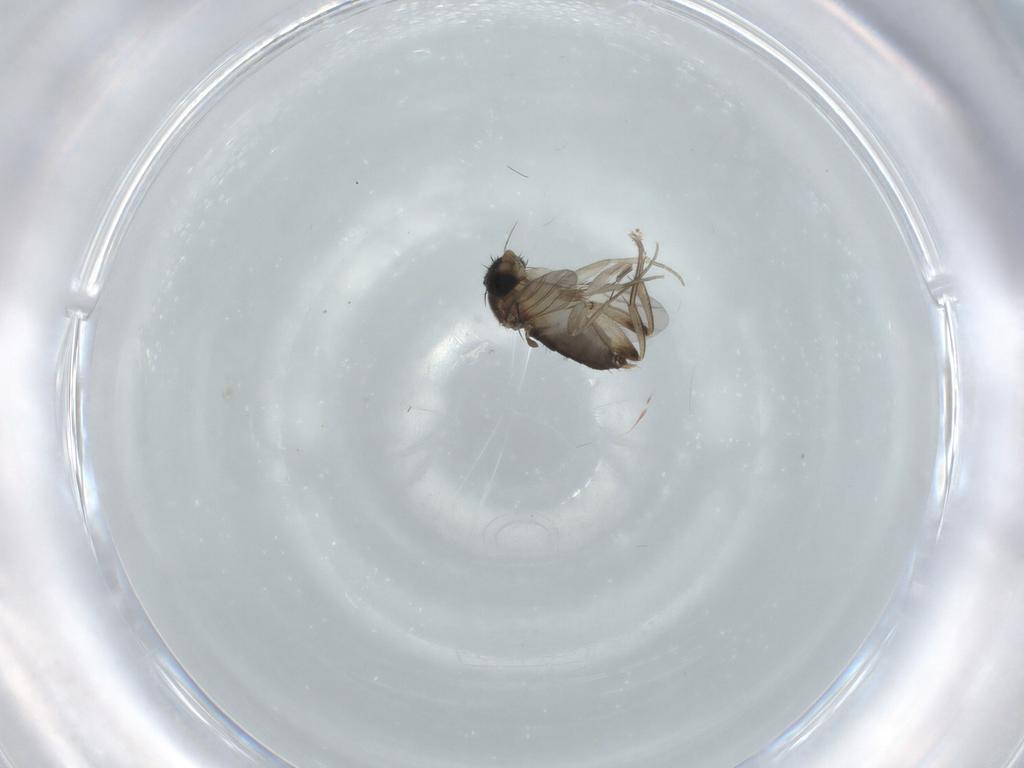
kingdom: Animalia
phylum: Arthropoda
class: Insecta
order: Diptera
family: Phoridae
